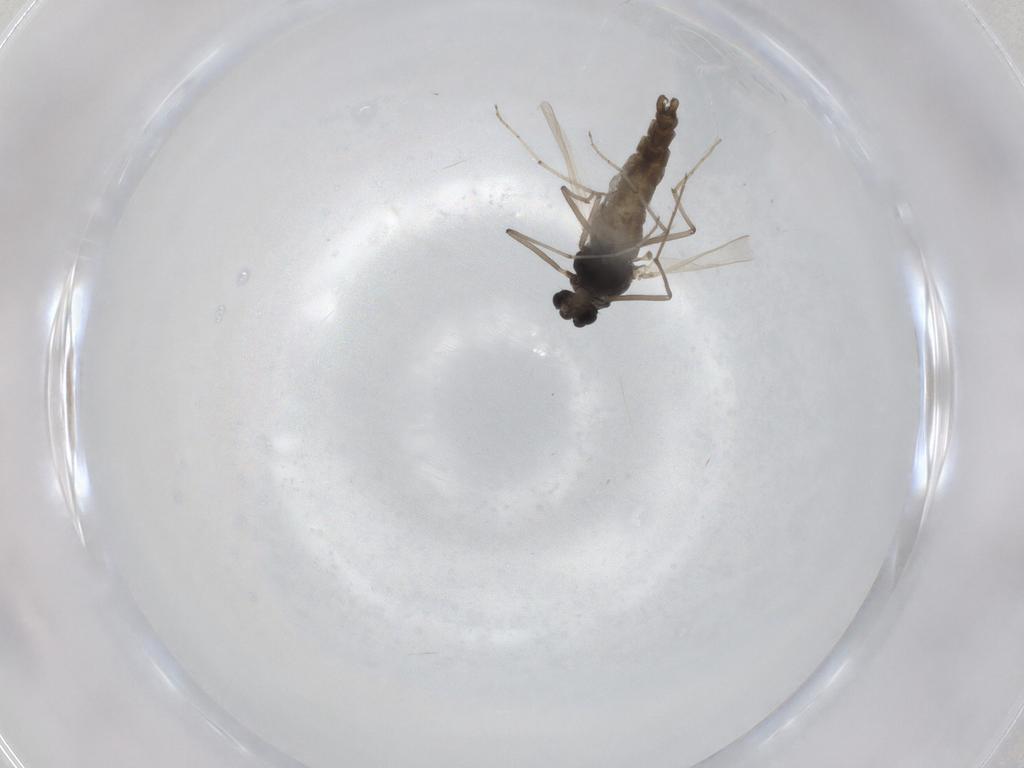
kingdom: Animalia
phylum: Arthropoda
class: Insecta
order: Diptera
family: Chironomidae
